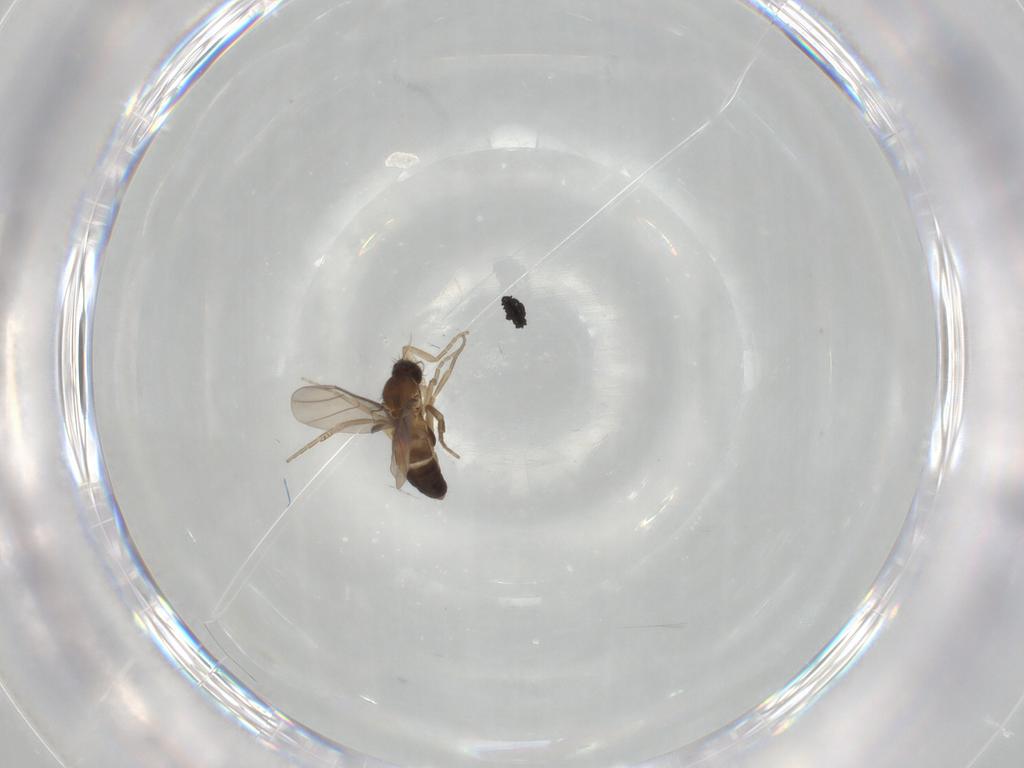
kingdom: Animalia
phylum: Arthropoda
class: Insecta
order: Diptera
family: Phoridae
